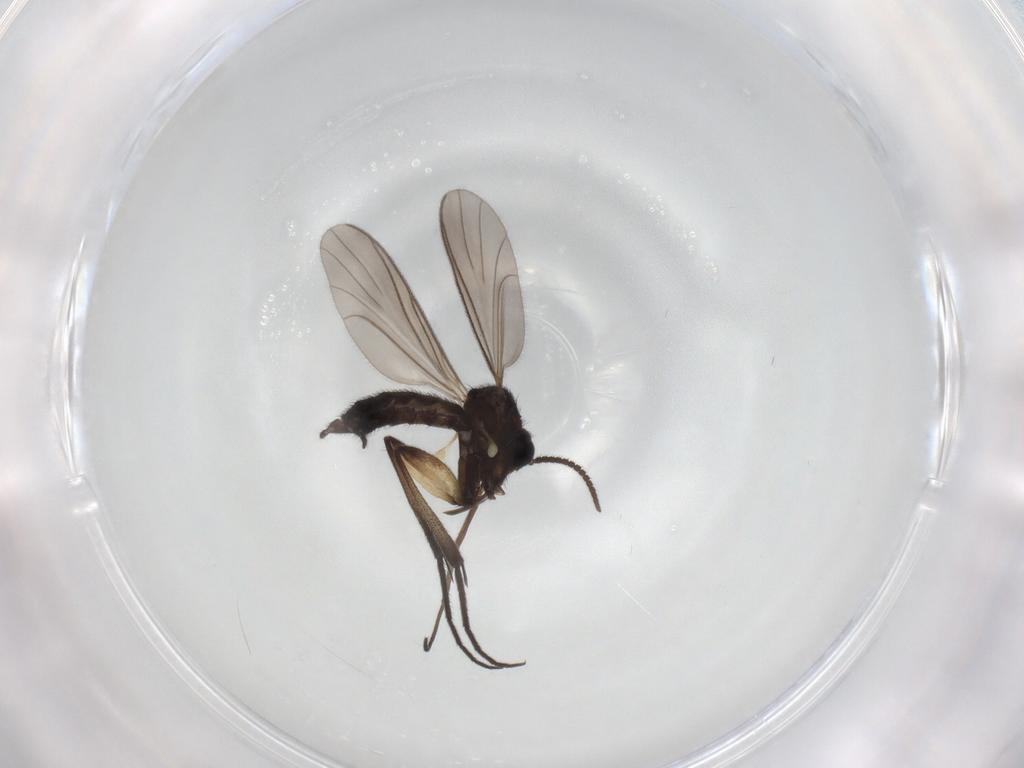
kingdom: Animalia
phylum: Arthropoda
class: Insecta
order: Diptera
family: Keroplatidae
